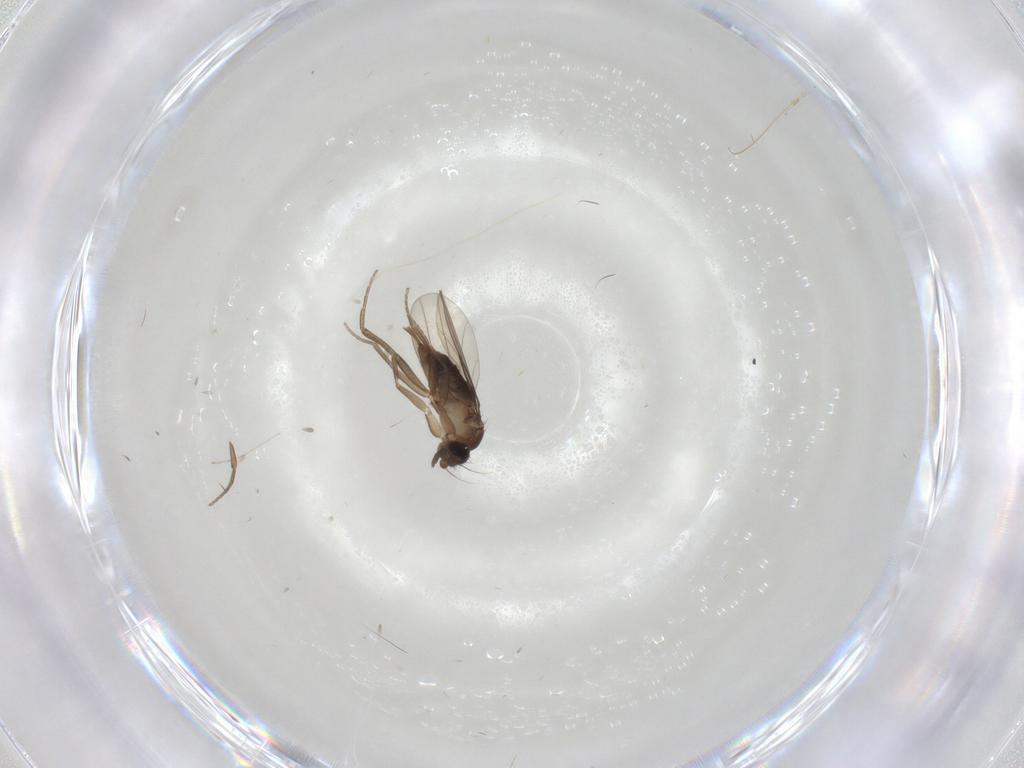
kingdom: Animalia
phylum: Arthropoda
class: Insecta
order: Diptera
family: Phoridae
